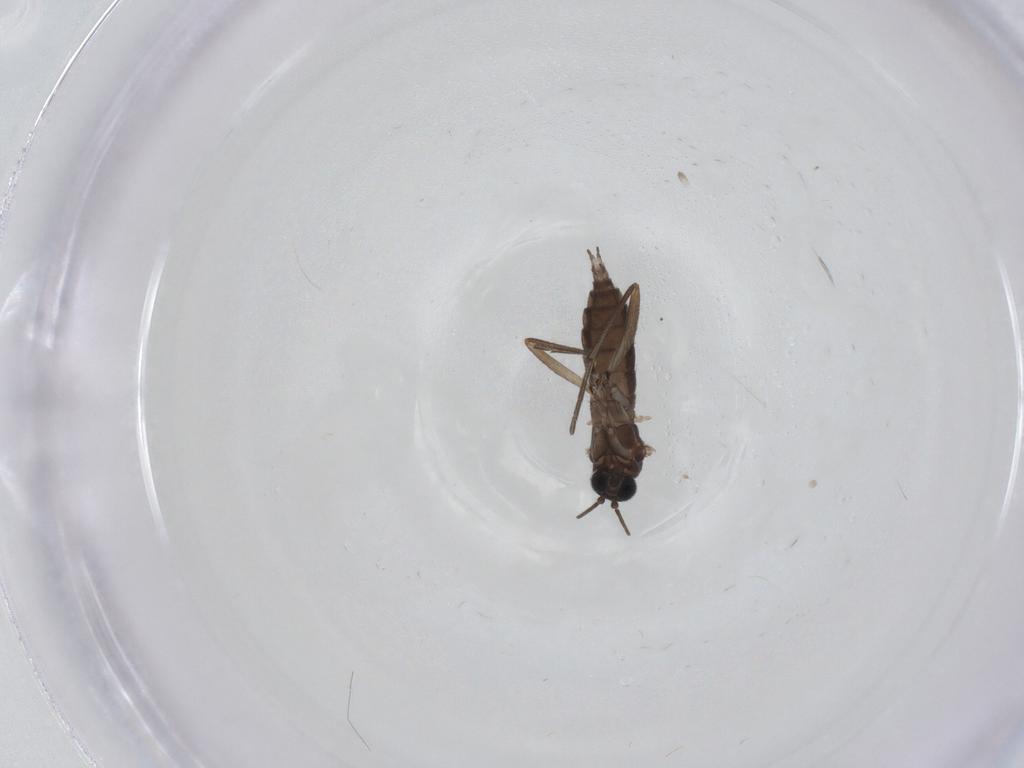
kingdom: Animalia
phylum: Arthropoda
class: Insecta
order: Diptera
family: Sciaridae
